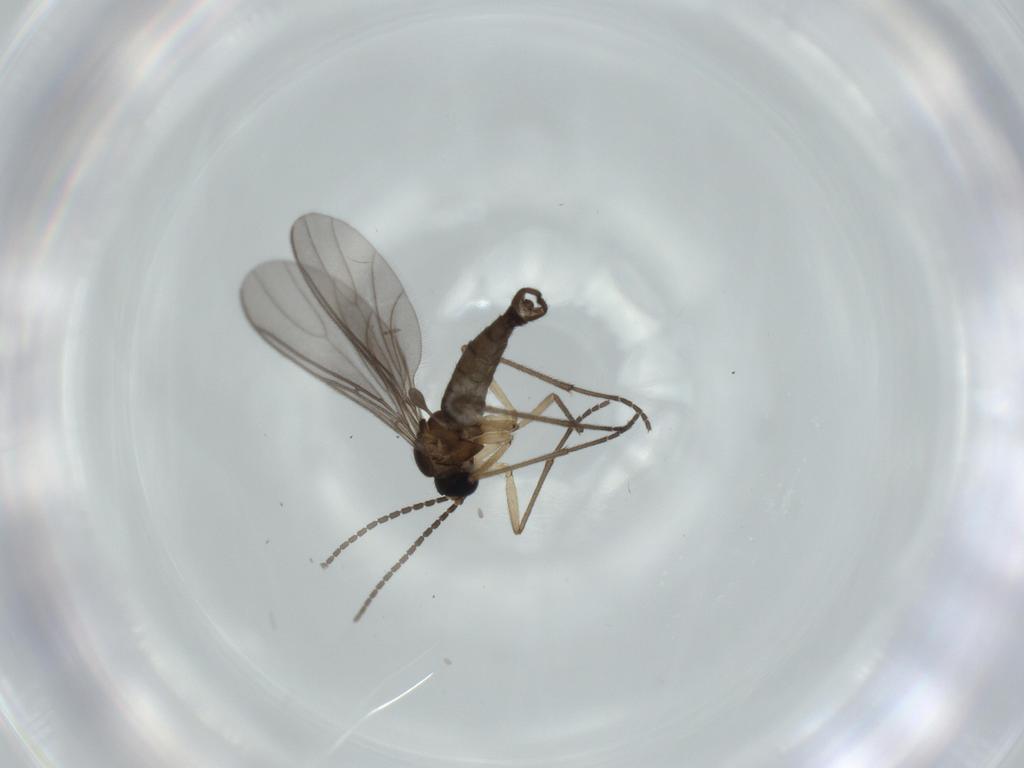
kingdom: Animalia
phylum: Arthropoda
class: Insecta
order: Diptera
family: Sciaridae
